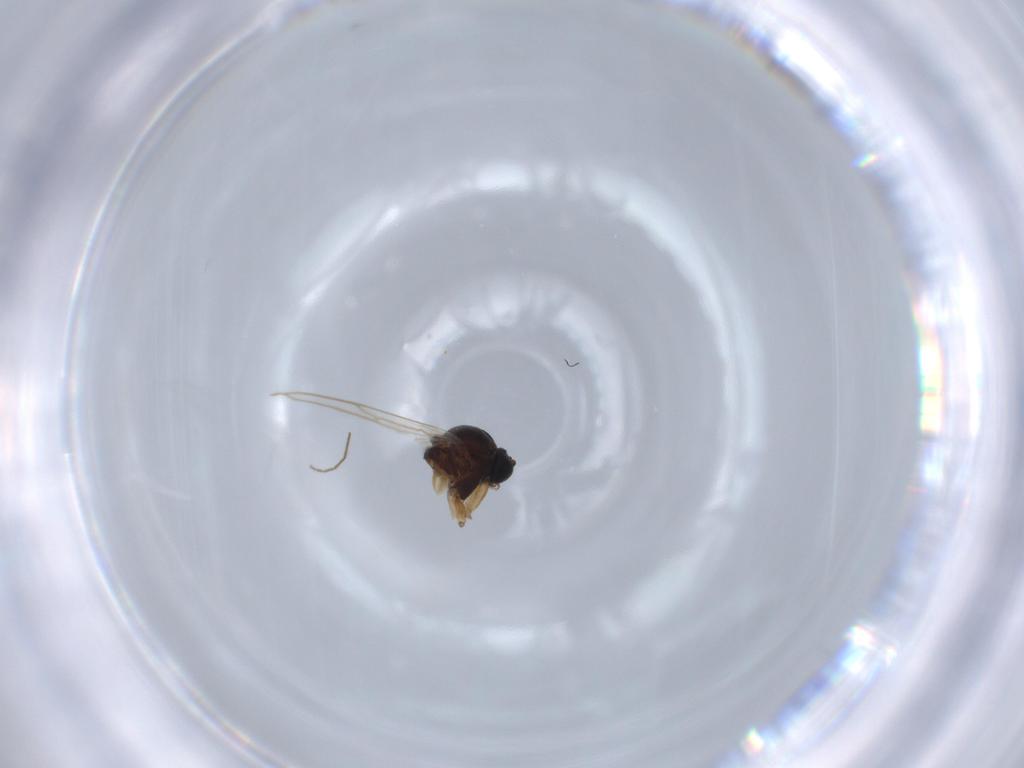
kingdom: Animalia
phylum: Arthropoda
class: Insecta
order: Diptera
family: Sciaridae
